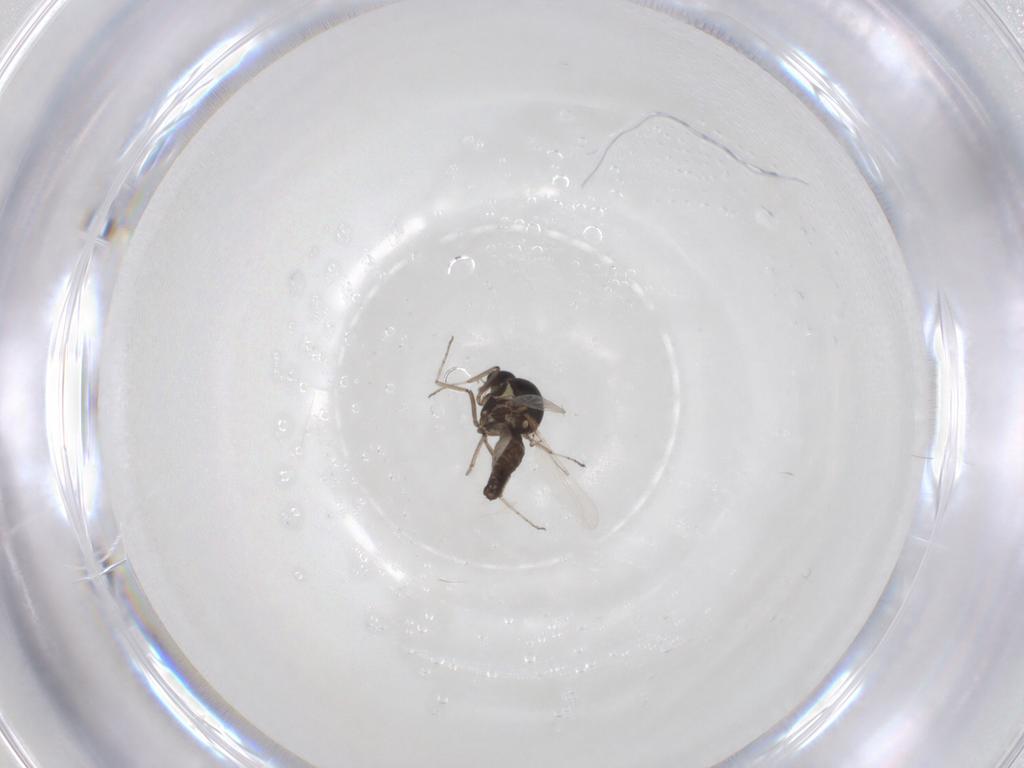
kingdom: Animalia
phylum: Arthropoda
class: Insecta
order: Diptera
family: Ceratopogonidae
